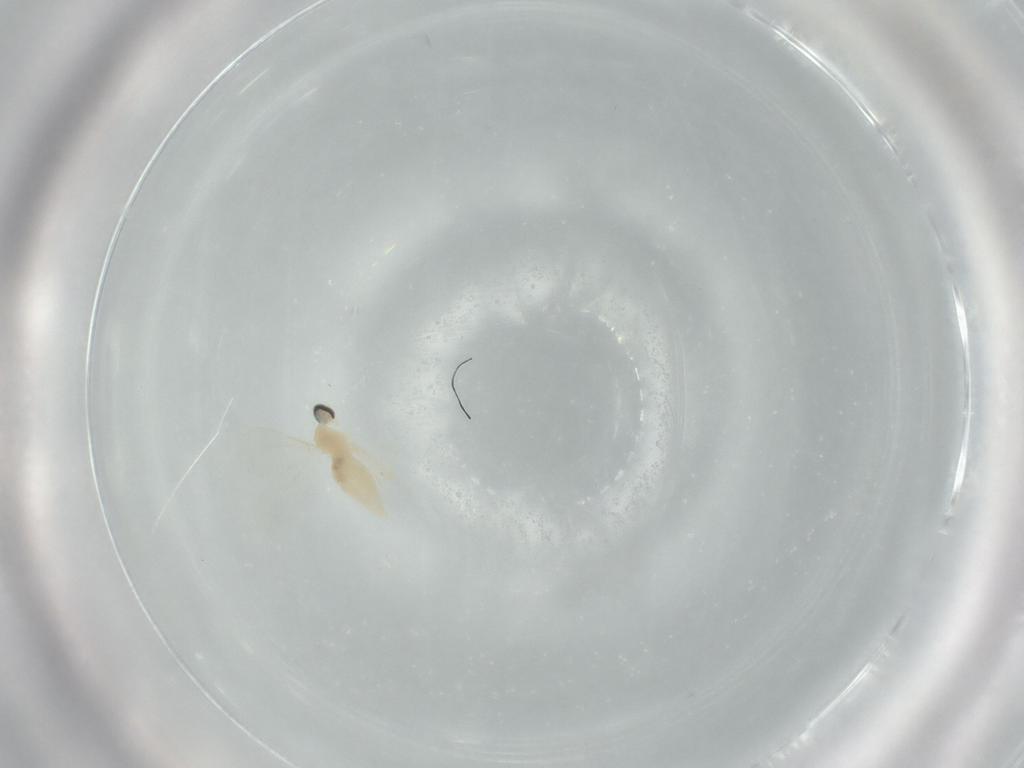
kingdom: Animalia
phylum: Arthropoda
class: Insecta
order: Diptera
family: Cecidomyiidae
